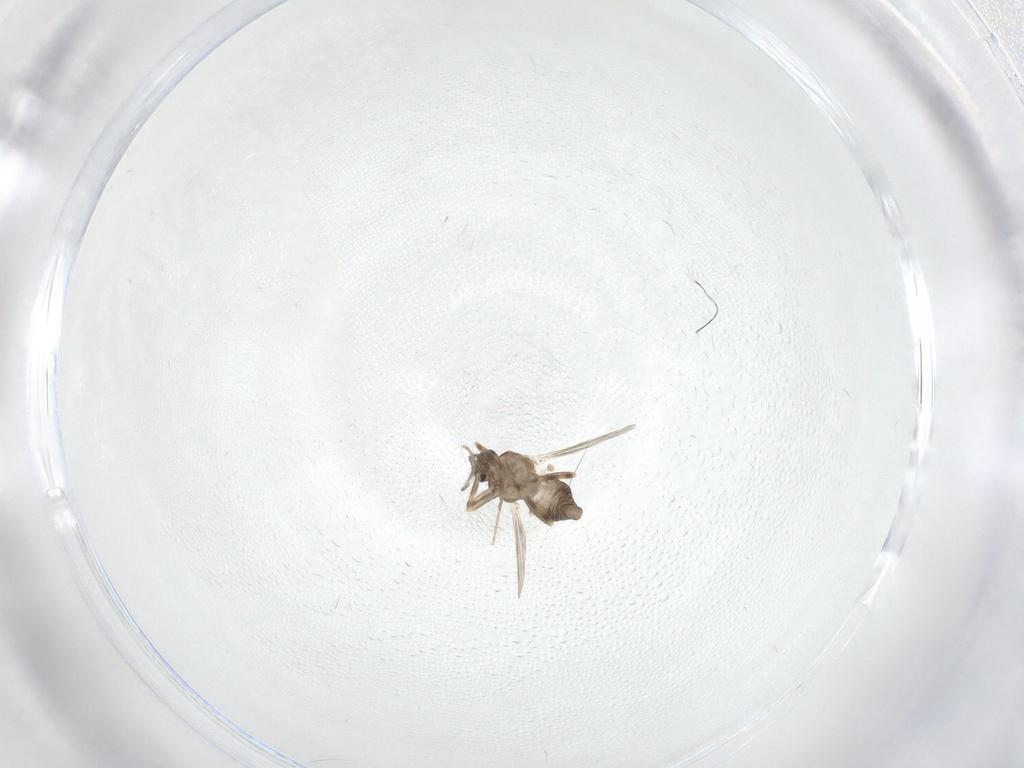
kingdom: Animalia
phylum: Arthropoda
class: Insecta
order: Diptera
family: Ceratopogonidae
